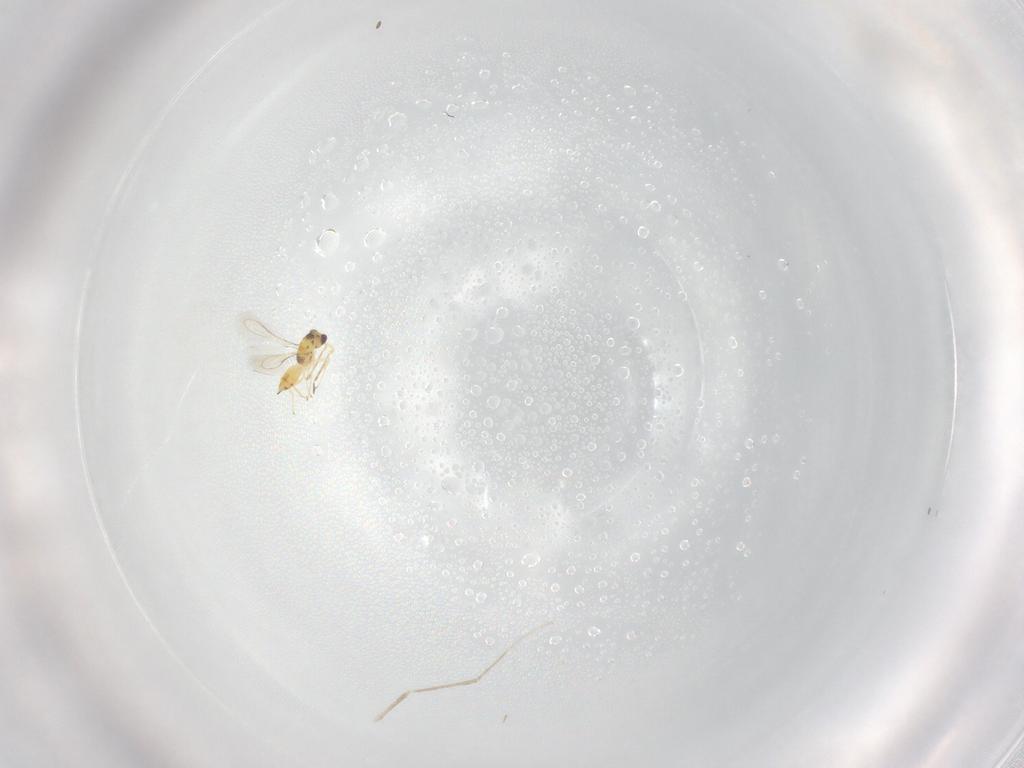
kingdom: Animalia
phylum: Arthropoda
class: Insecta
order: Hymenoptera
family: Mymaridae
